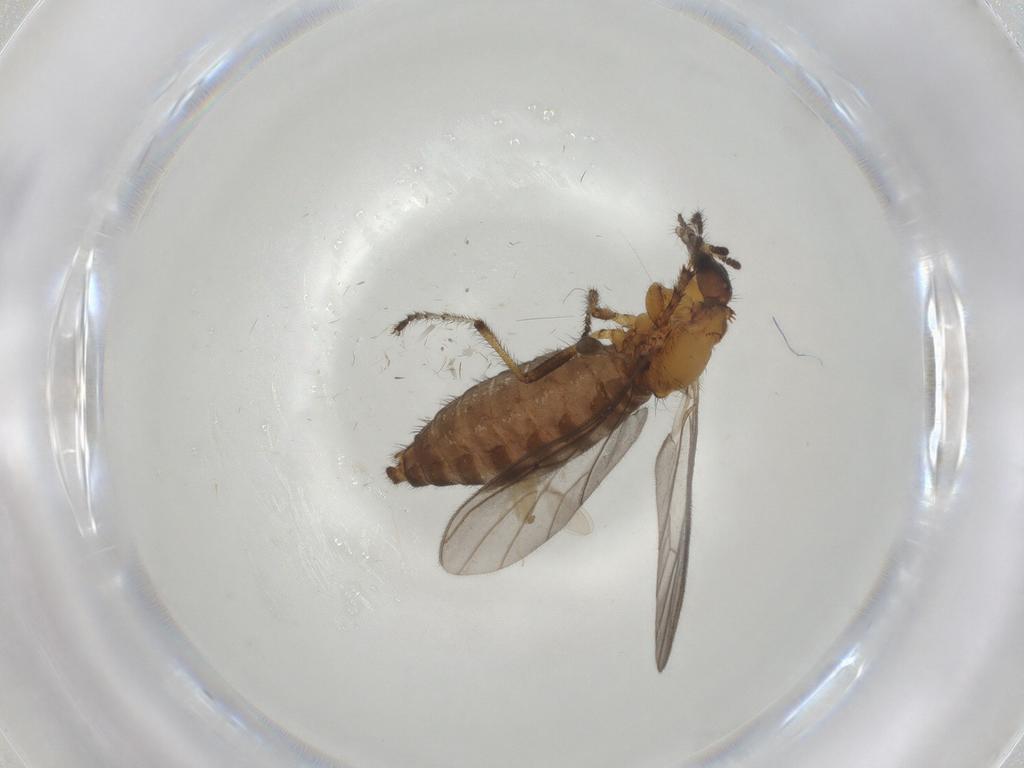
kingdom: Animalia
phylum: Arthropoda
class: Insecta
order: Diptera
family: Bibionidae
